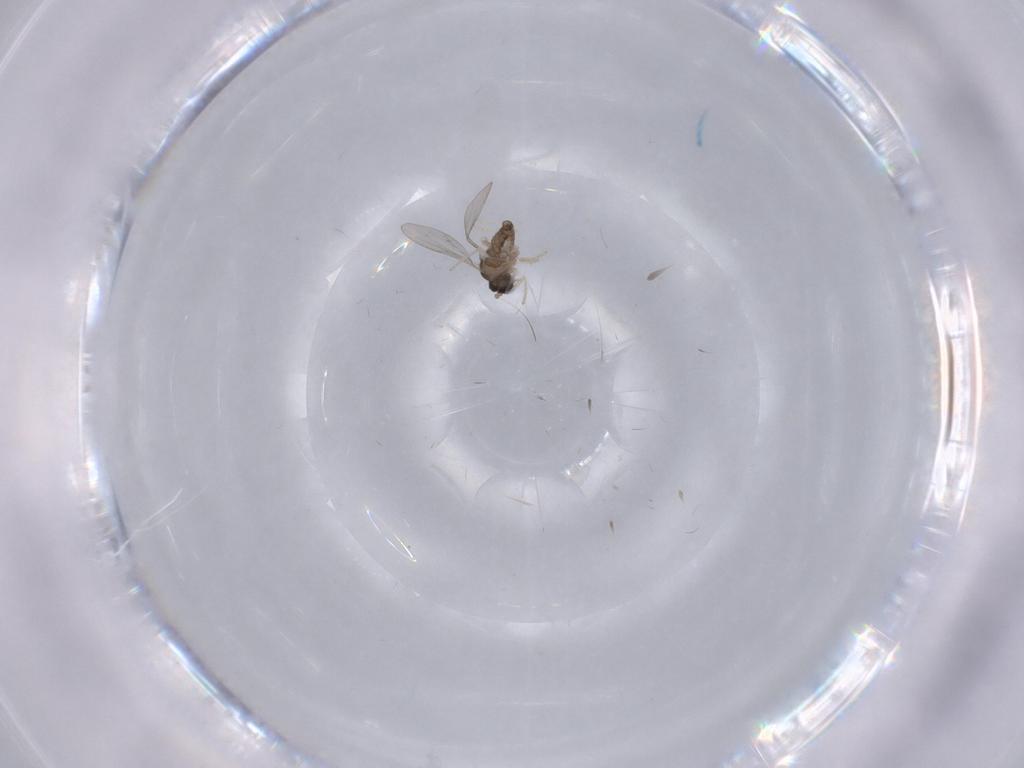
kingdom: Animalia
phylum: Arthropoda
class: Insecta
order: Diptera
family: Cecidomyiidae
